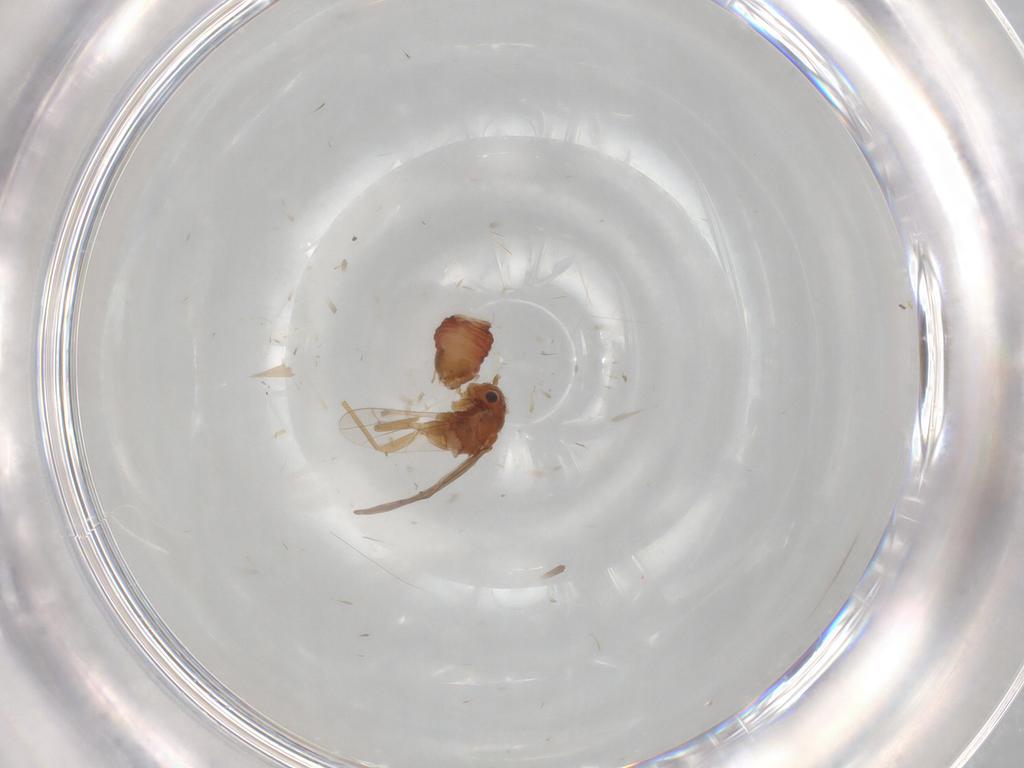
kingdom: Animalia
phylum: Arthropoda
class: Insecta
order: Psocodea
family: Ectopsocidae
